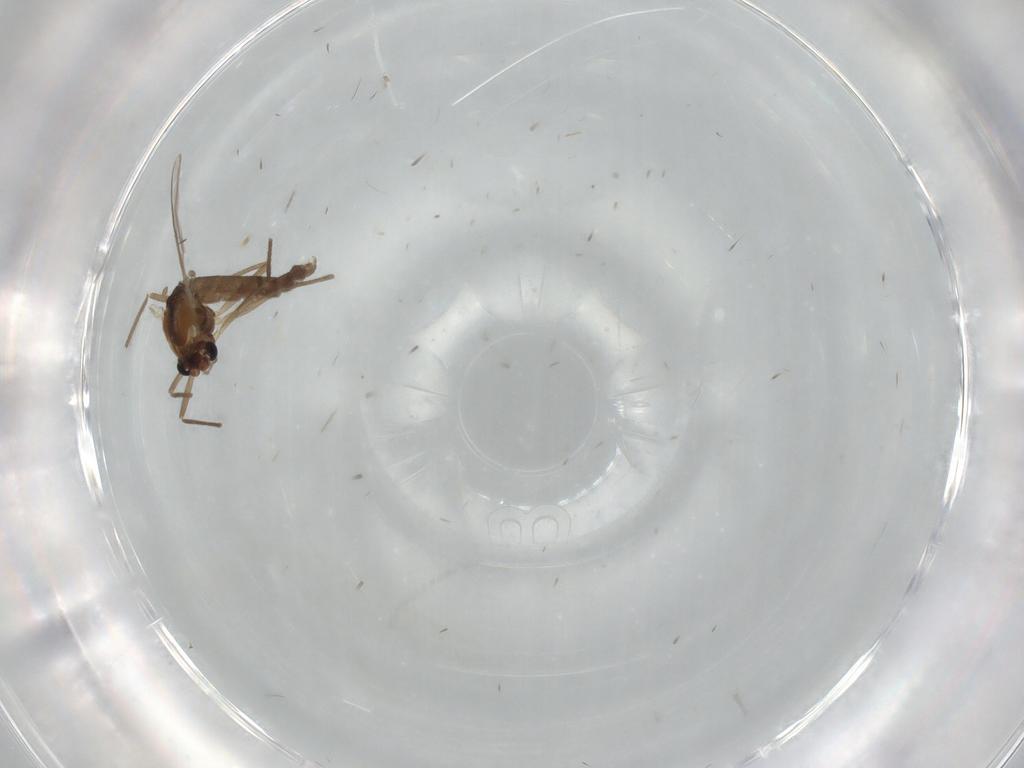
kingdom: Animalia
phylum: Arthropoda
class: Insecta
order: Diptera
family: Chironomidae
